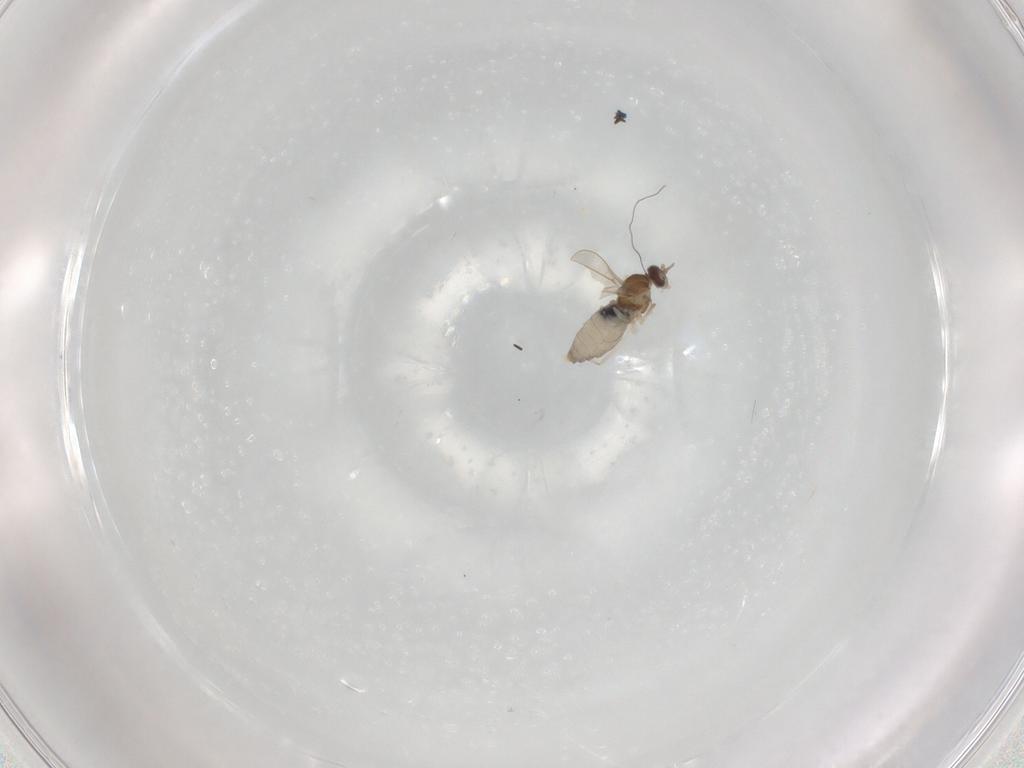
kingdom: Animalia
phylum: Arthropoda
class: Insecta
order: Diptera
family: Cecidomyiidae
